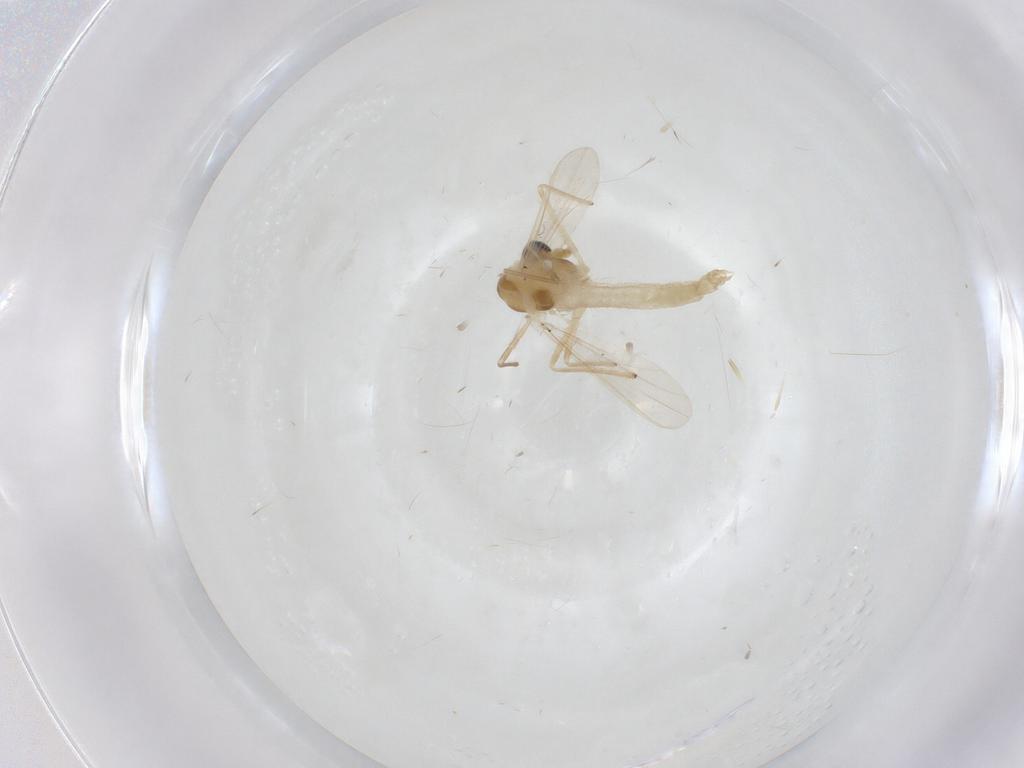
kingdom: Animalia
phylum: Arthropoda
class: Insecta
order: Diptera
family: Chironomidae
